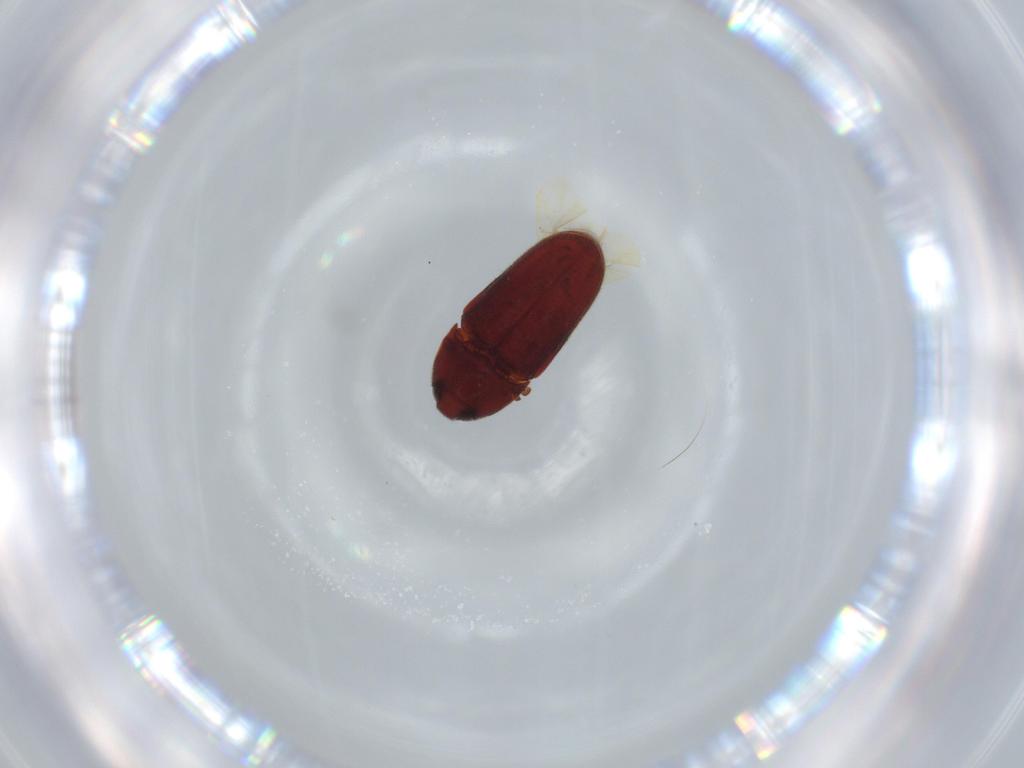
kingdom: Animalia
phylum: Arthropoda
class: Insecta
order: Coleoptera
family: Throscidae
